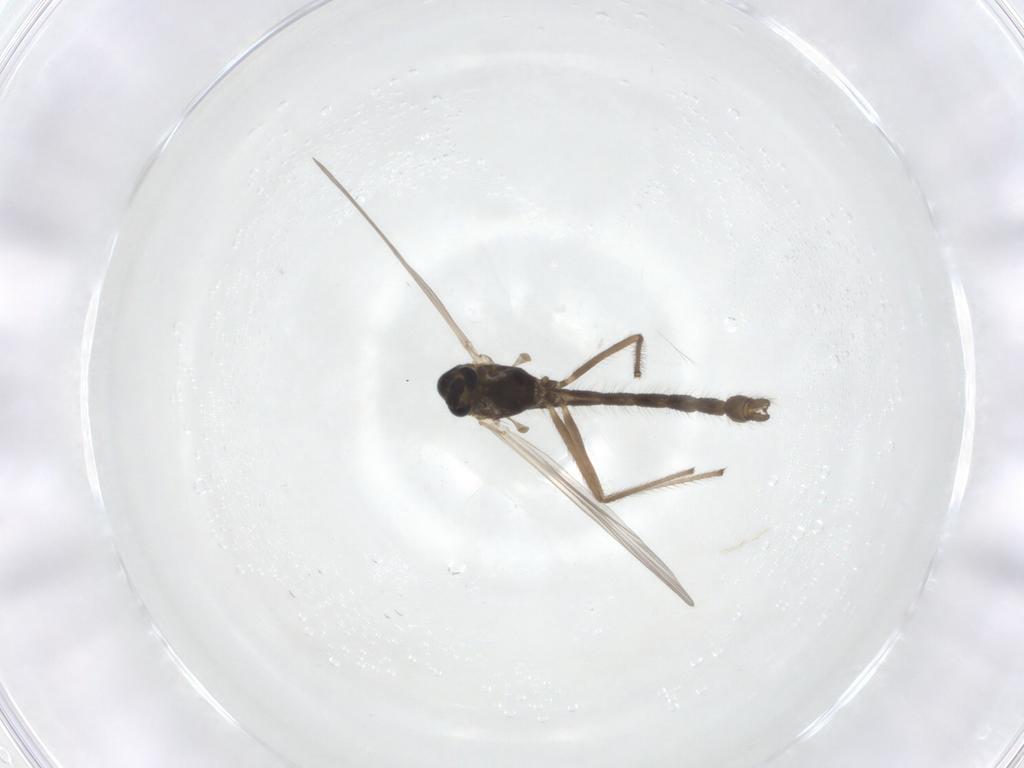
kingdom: Animalia
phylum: Arthropoda
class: Insecta
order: Diptera
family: Chironomidae
